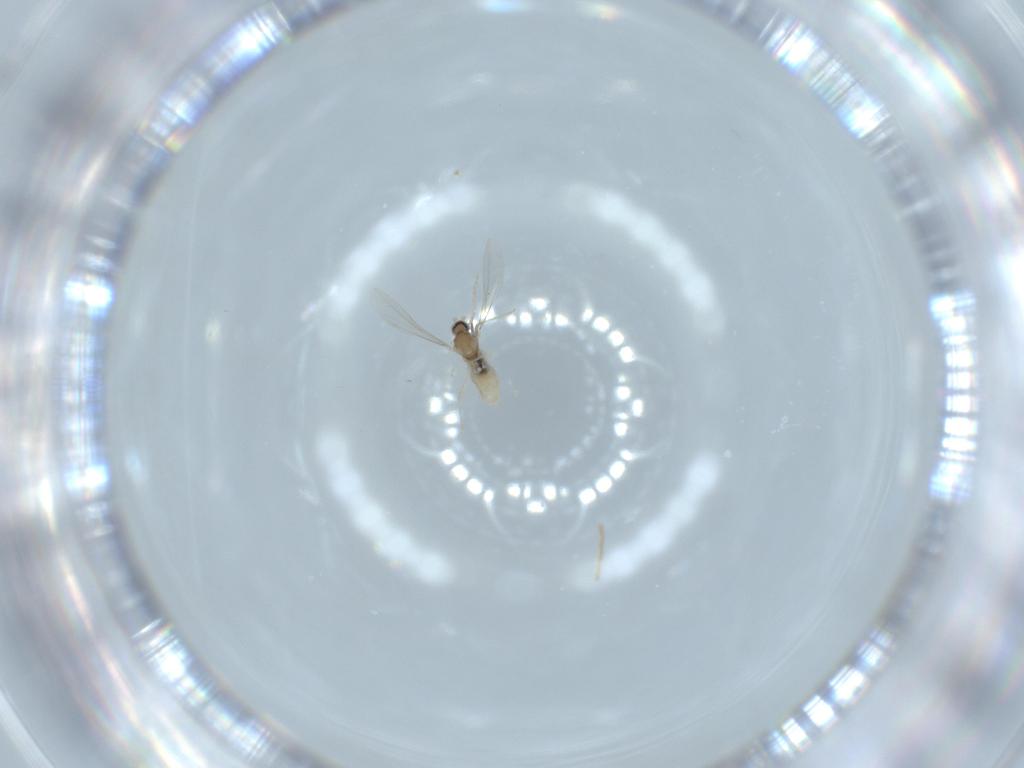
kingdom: Animalia
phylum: Arthropoda
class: Insecta
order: Diptera
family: Cecidomyiidae
